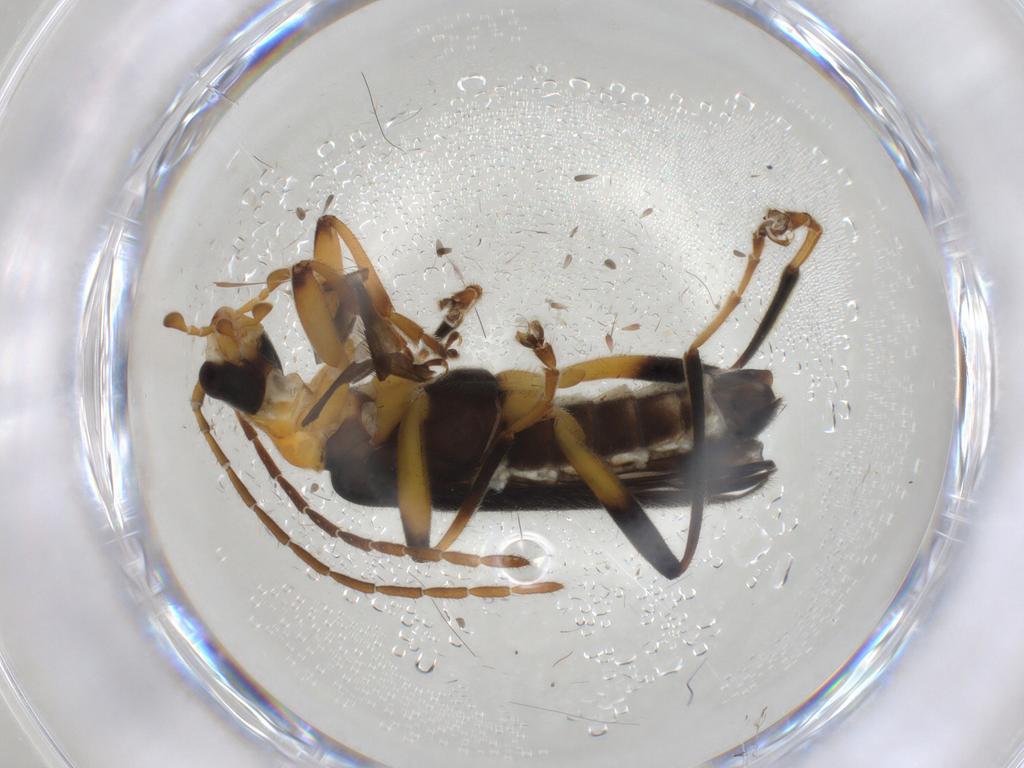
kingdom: Animalia
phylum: Arthropoda
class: Insecta
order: Coleoptera
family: Cantharidae
